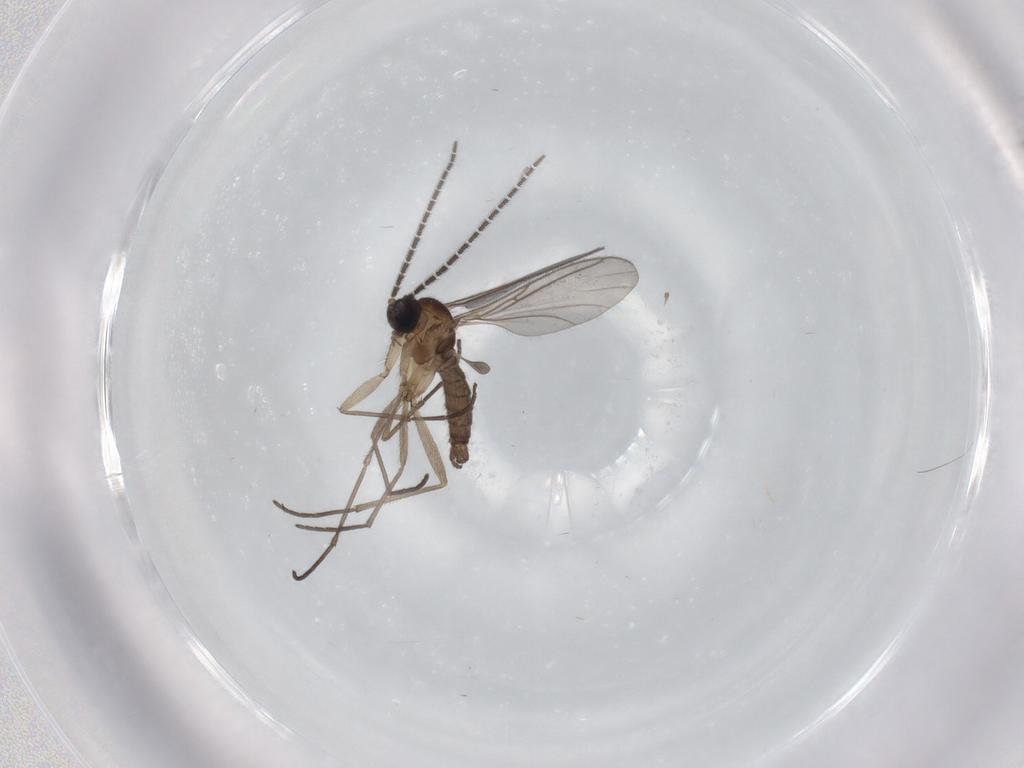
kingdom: Animalia
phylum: Arthropoda
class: Insecta
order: Diptera
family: Sciaridae
